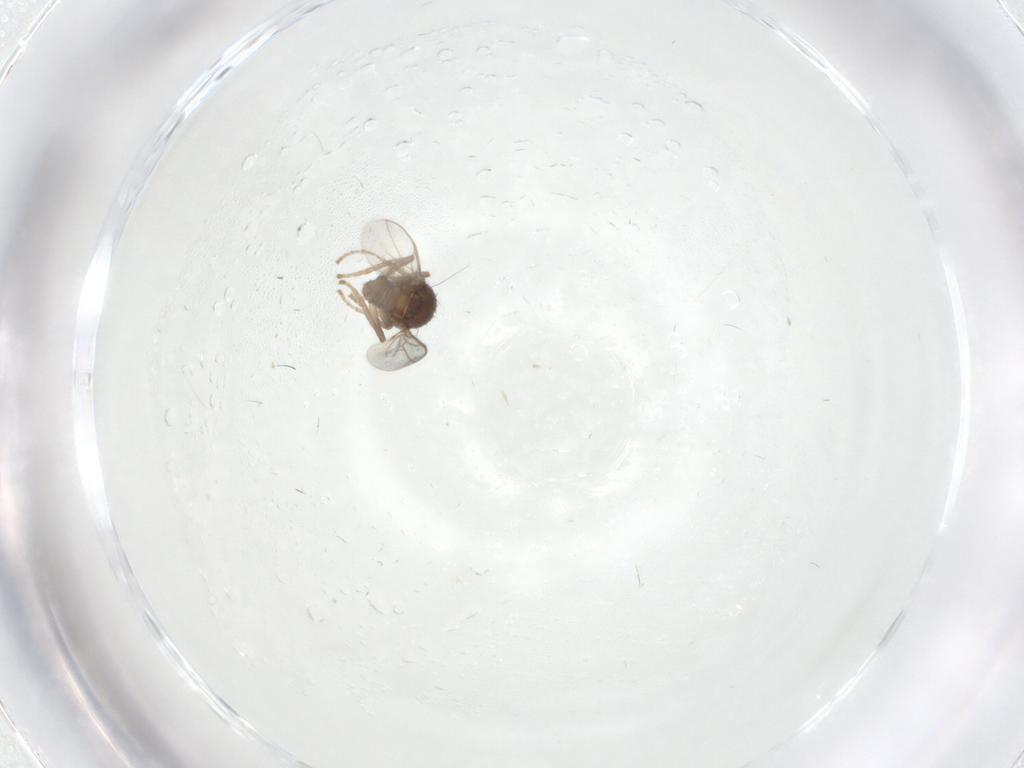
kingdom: Animalia
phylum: Arthropoda
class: Insecta
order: Diptera
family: Sphaeroceridae
